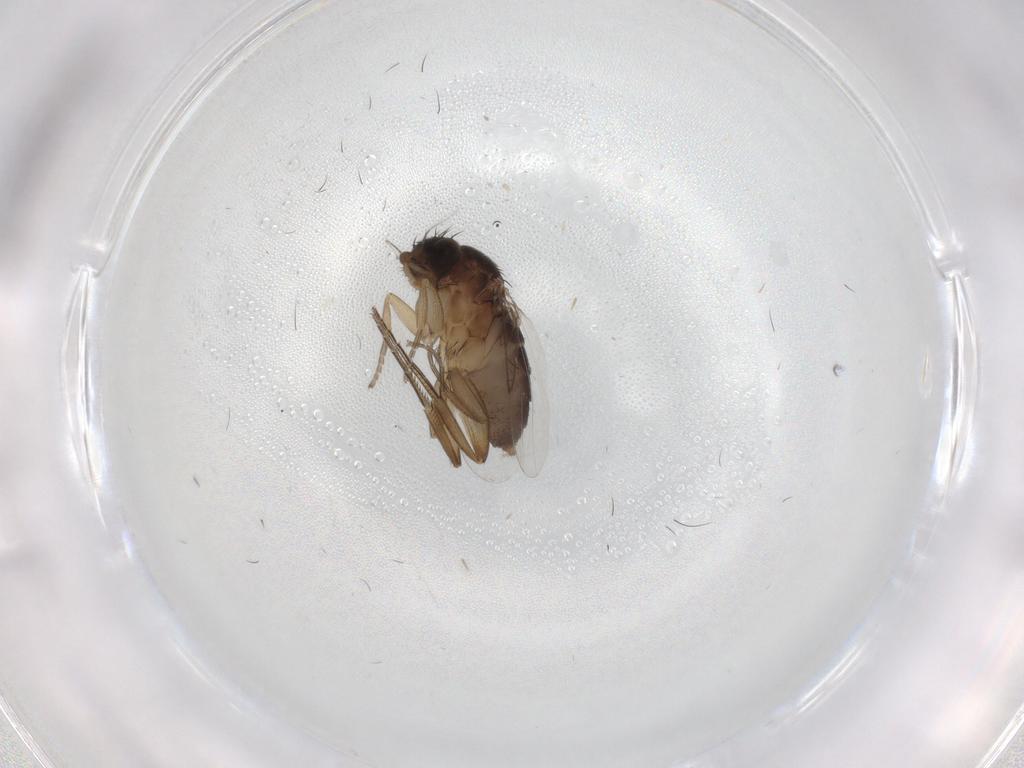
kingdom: Animalia
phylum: Arthropoda
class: Insecta
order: Diptera
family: Phoridae
